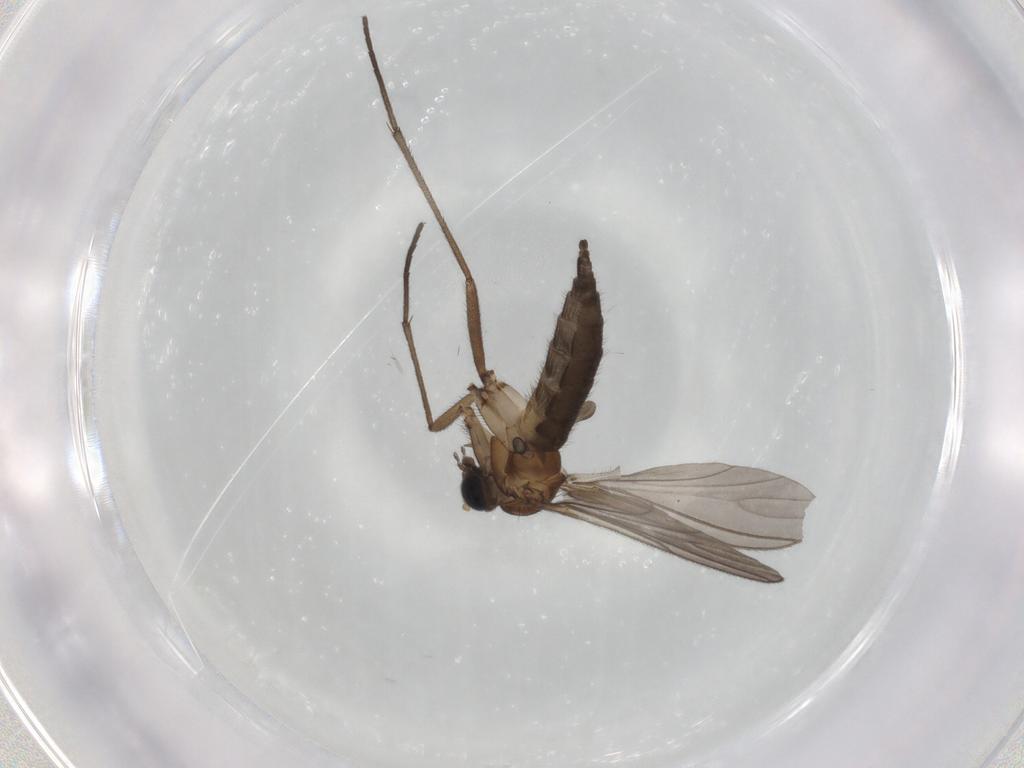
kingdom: Animalia
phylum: Arthropoda
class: Insecta
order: Diptera
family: Sciaridae
